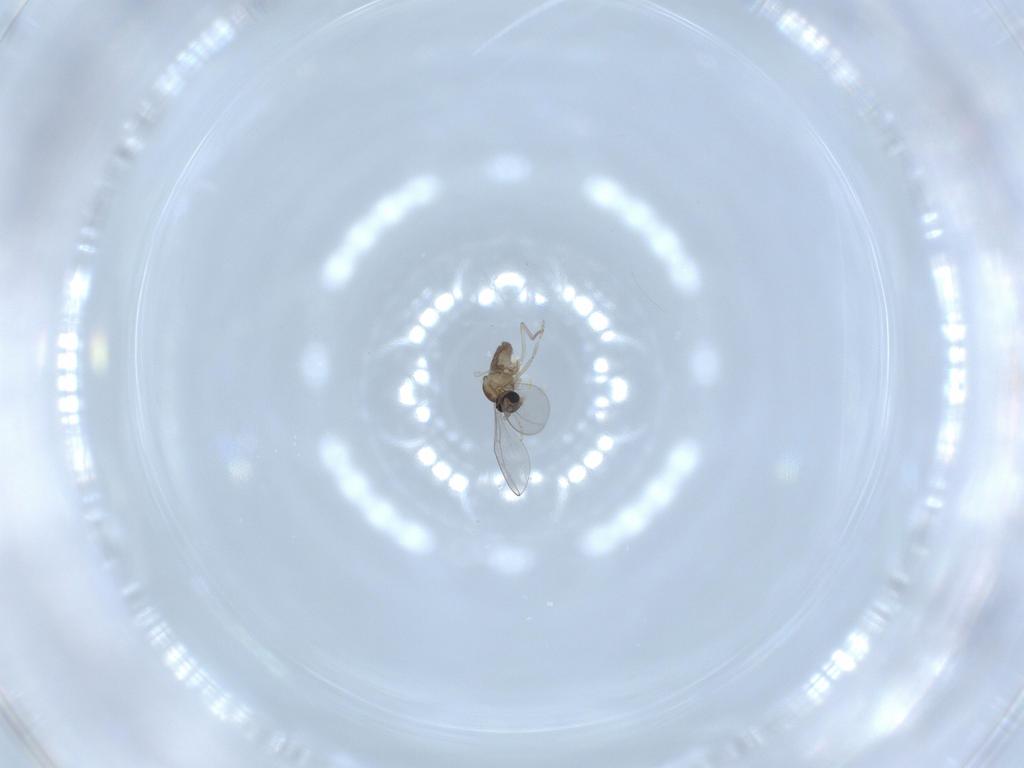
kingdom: Animalia
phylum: Arthropoda
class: Insecta
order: Diptera
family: Cecidomyiidae
